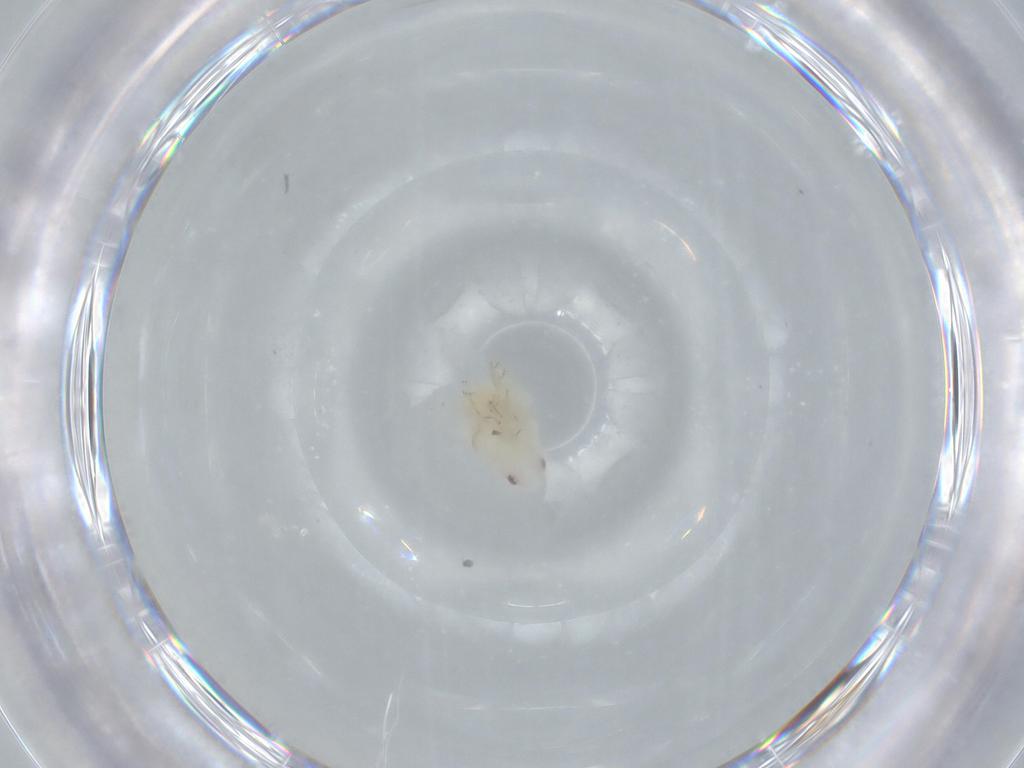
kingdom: Animalia
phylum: Arthropoda
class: Insecta
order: Hemiptera
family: Flatidae
